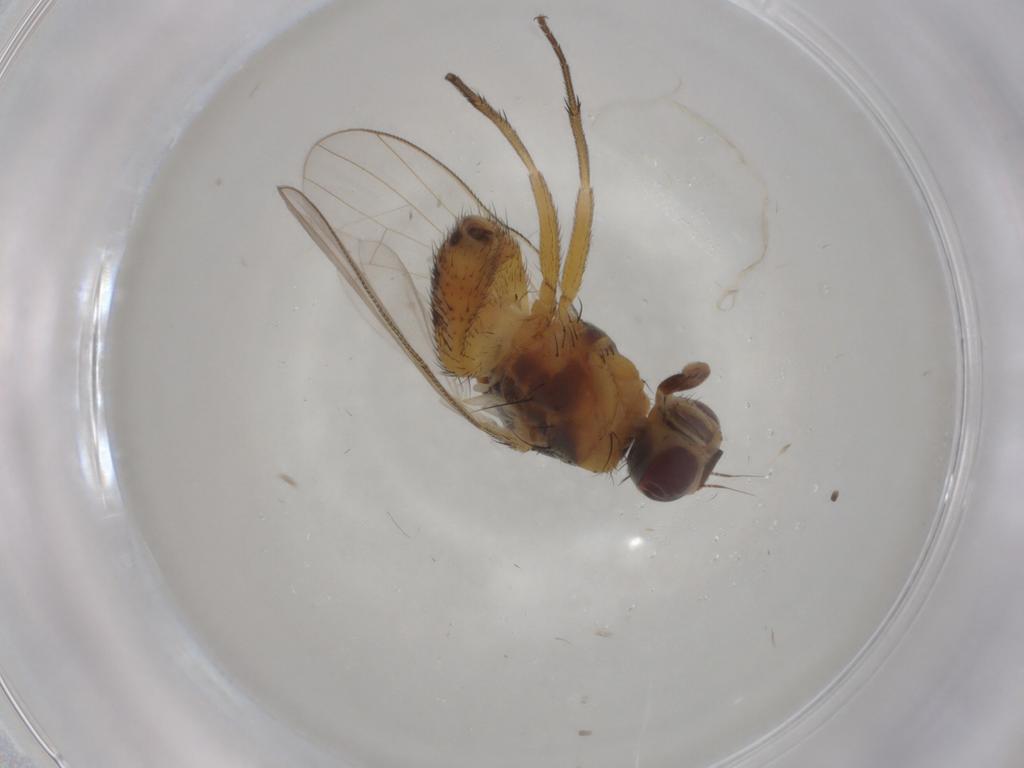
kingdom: Animalia
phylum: Arthropoda
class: Insecta
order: Diptera
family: Muscidae
